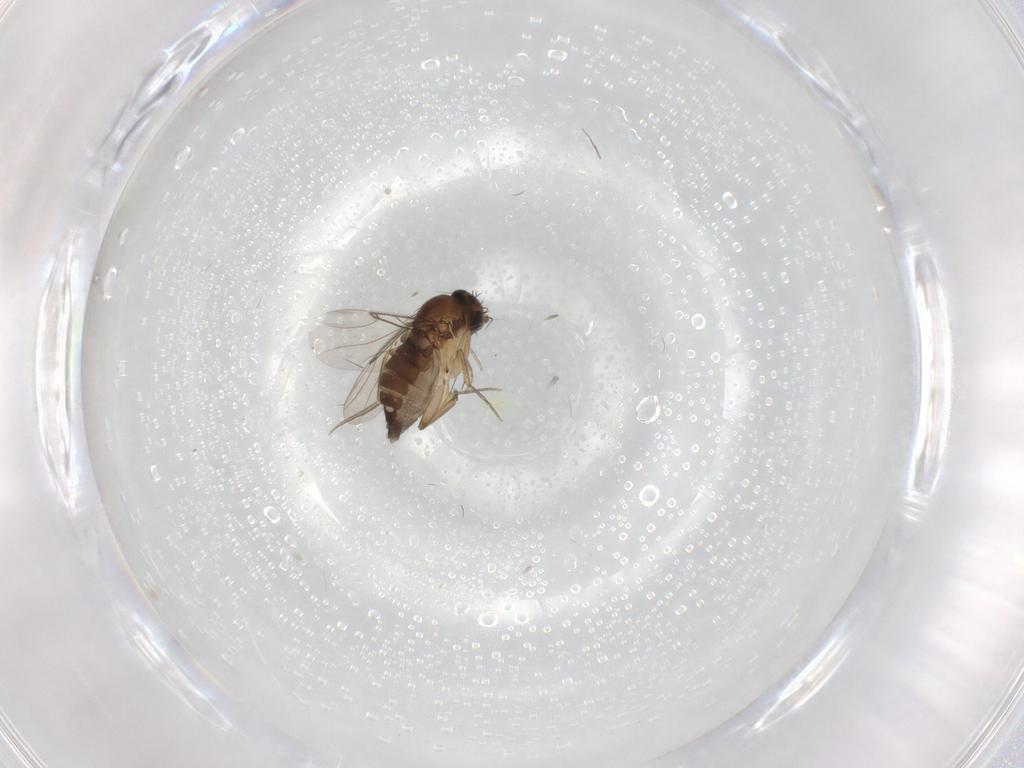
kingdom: Animalia
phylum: Arthropoda
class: Insecta
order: Diptera
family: Phoridae
